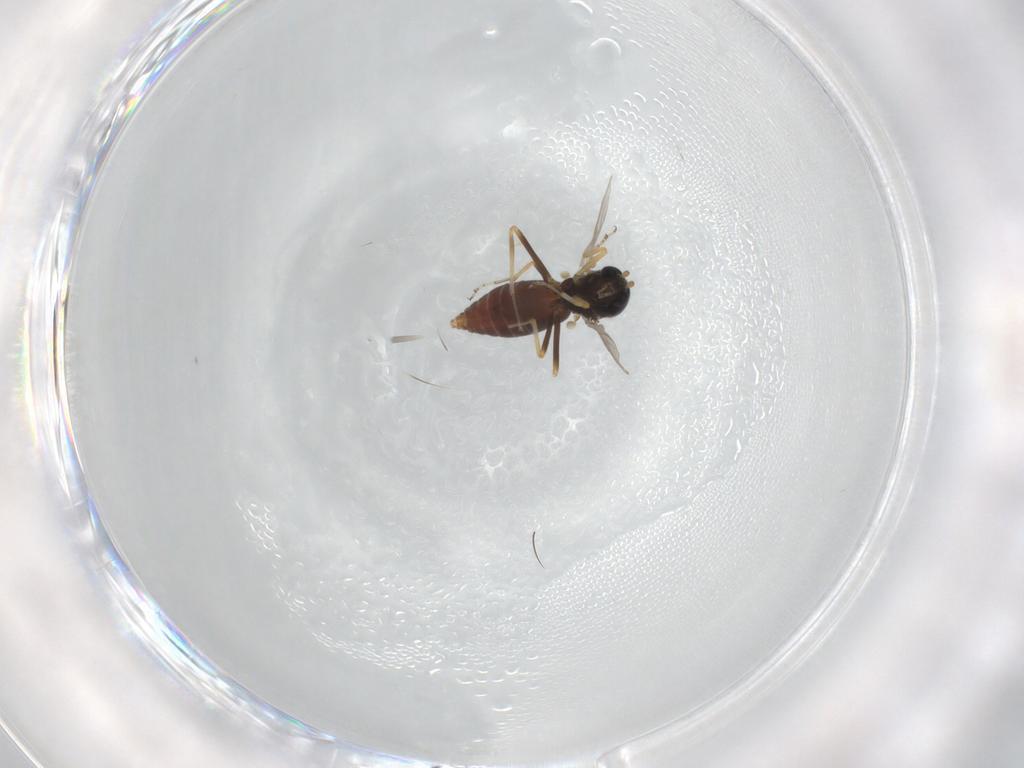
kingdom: Animalia
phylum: Arthropoda
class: Insecta
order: Diptera
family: Ceratopogonidae
